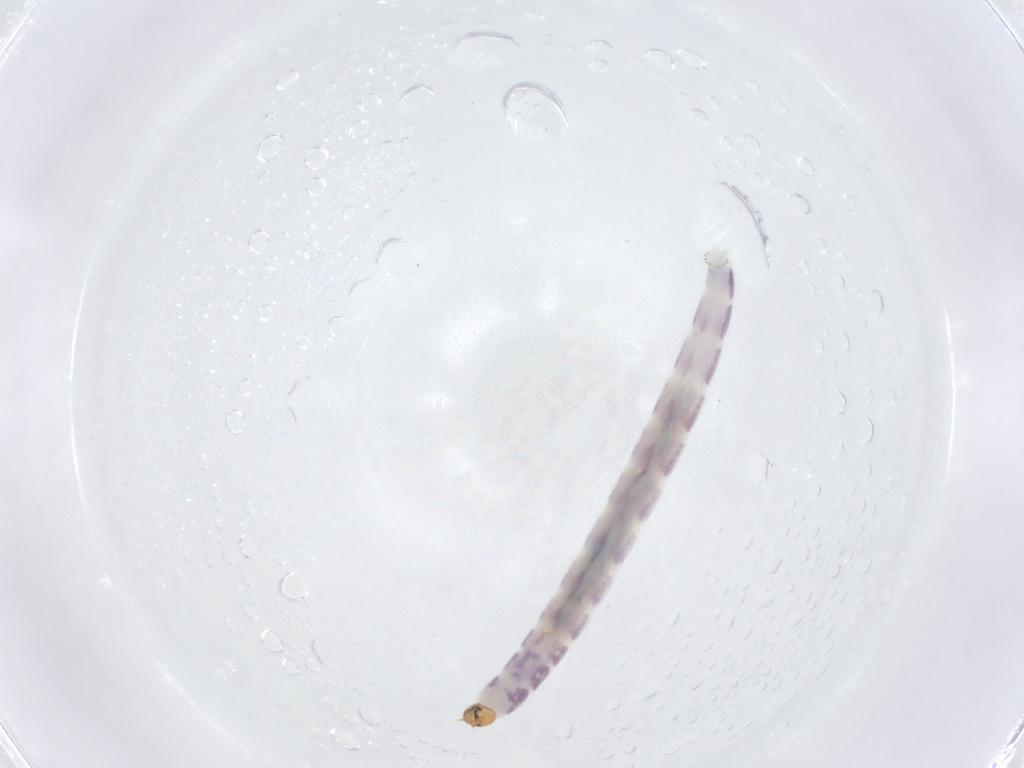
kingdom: Animalia
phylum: Arthropoda
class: Insecta
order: Diptera
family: Chironomidae
